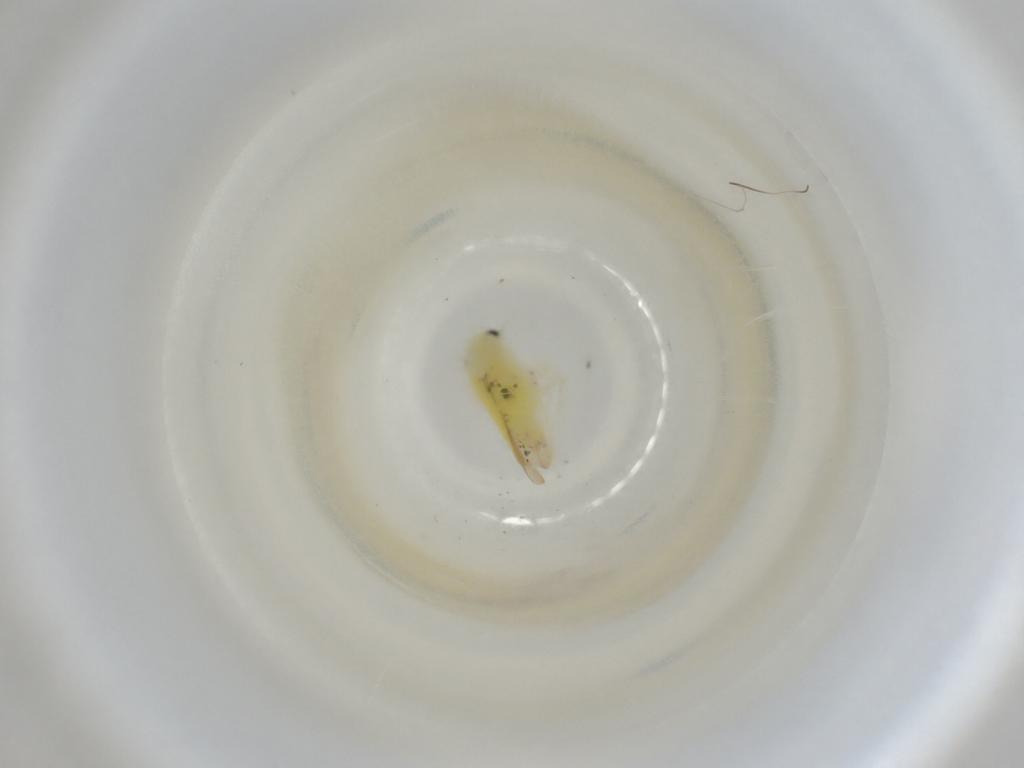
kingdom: Animalia
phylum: Arthropoda
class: Insecta
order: Hemiptera
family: Cicadellidae
